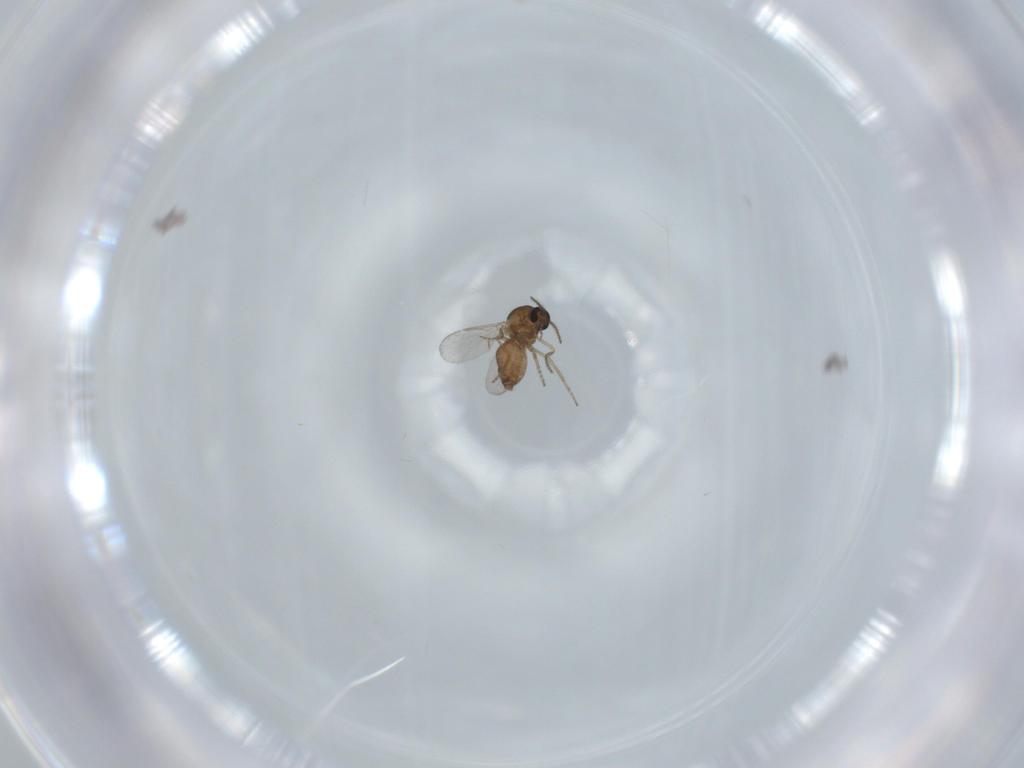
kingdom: Animalia
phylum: Arthropoda
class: Insecta
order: Diptera
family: Ceratopogonidae
